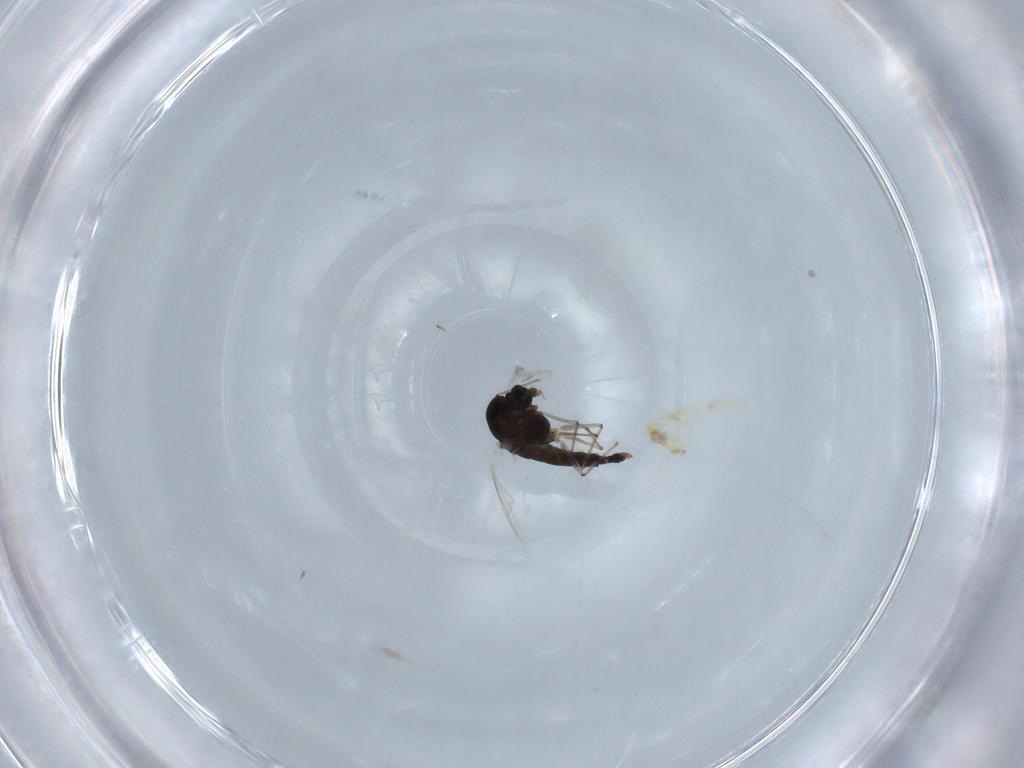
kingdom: Animalia
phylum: Arthropoda
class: Insecta
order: Diptera
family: Chironomidae
